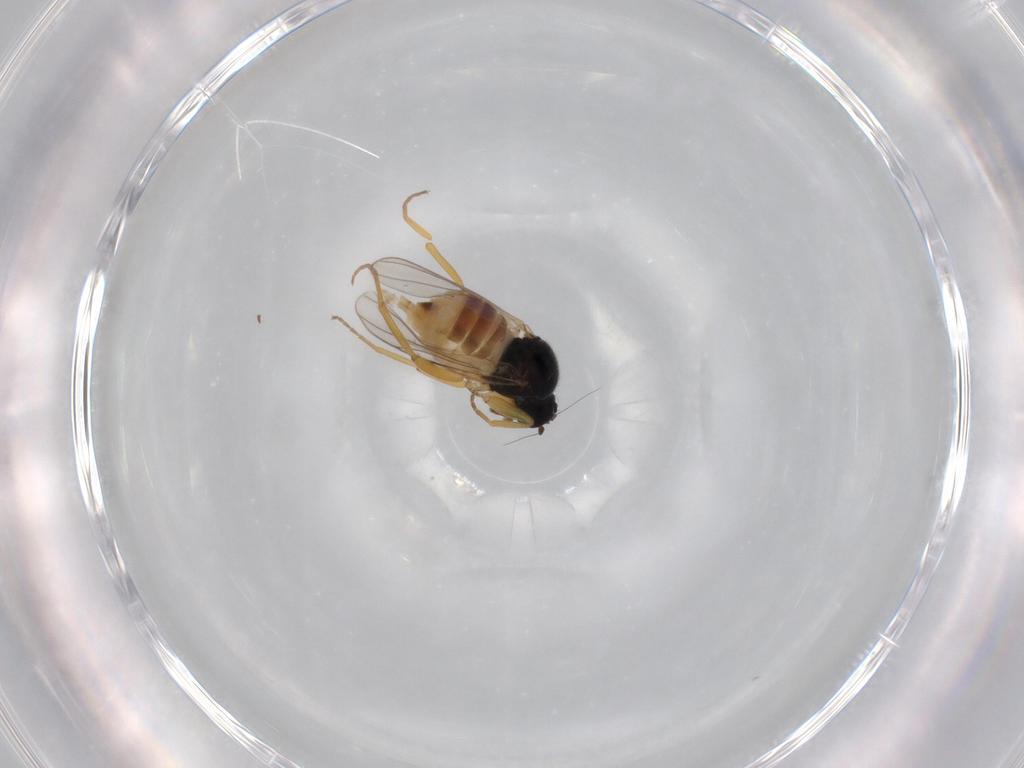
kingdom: Animalia
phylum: Arthropoda
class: Insecta
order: Diptera
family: Hybotidae
